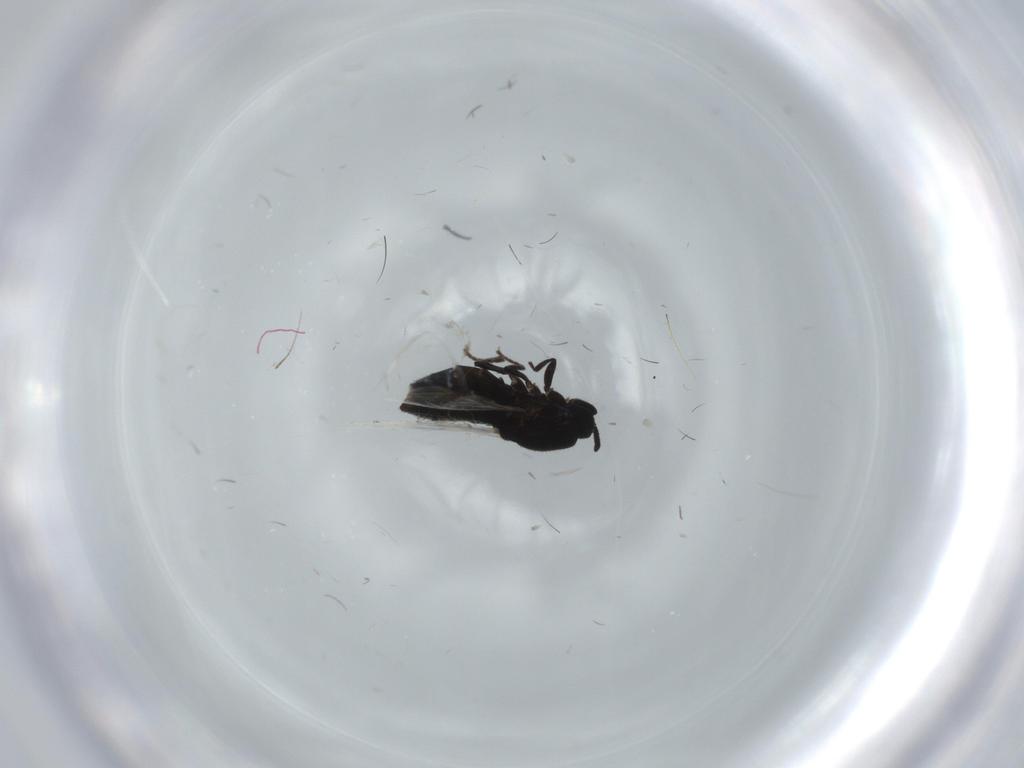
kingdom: Animalia
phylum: Arthropoda
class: Insecta
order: Diptera
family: Scatopsidae
